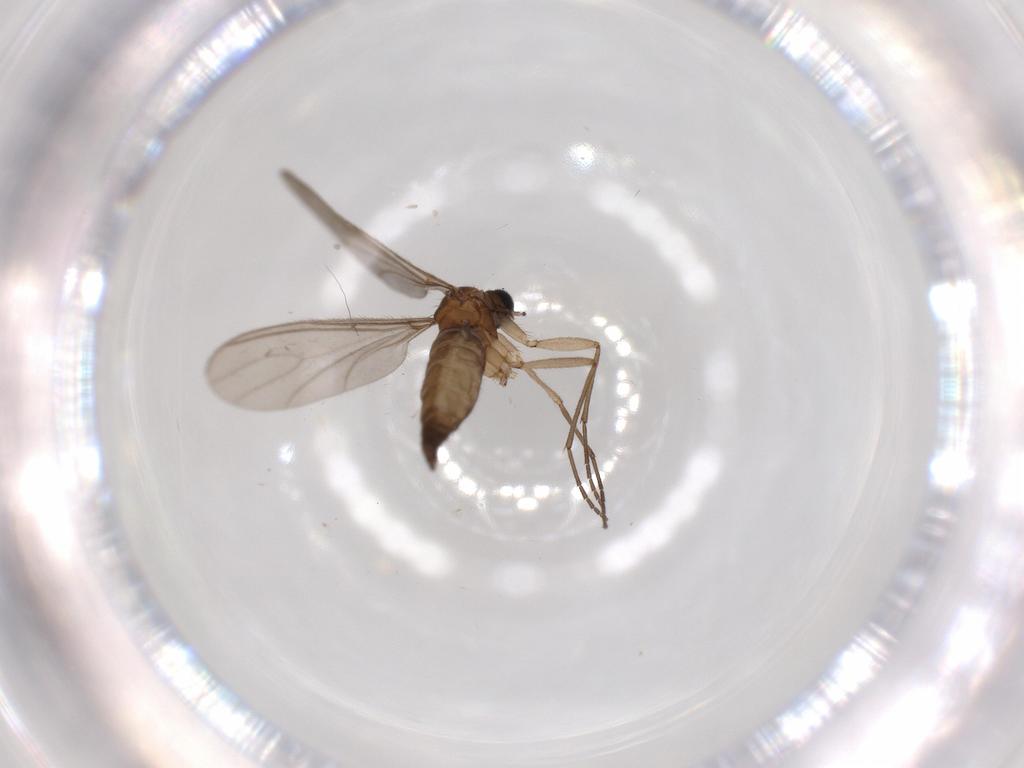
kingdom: Animalia
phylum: Arthropoda
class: Insecta
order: Diptera
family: Sciaridae
